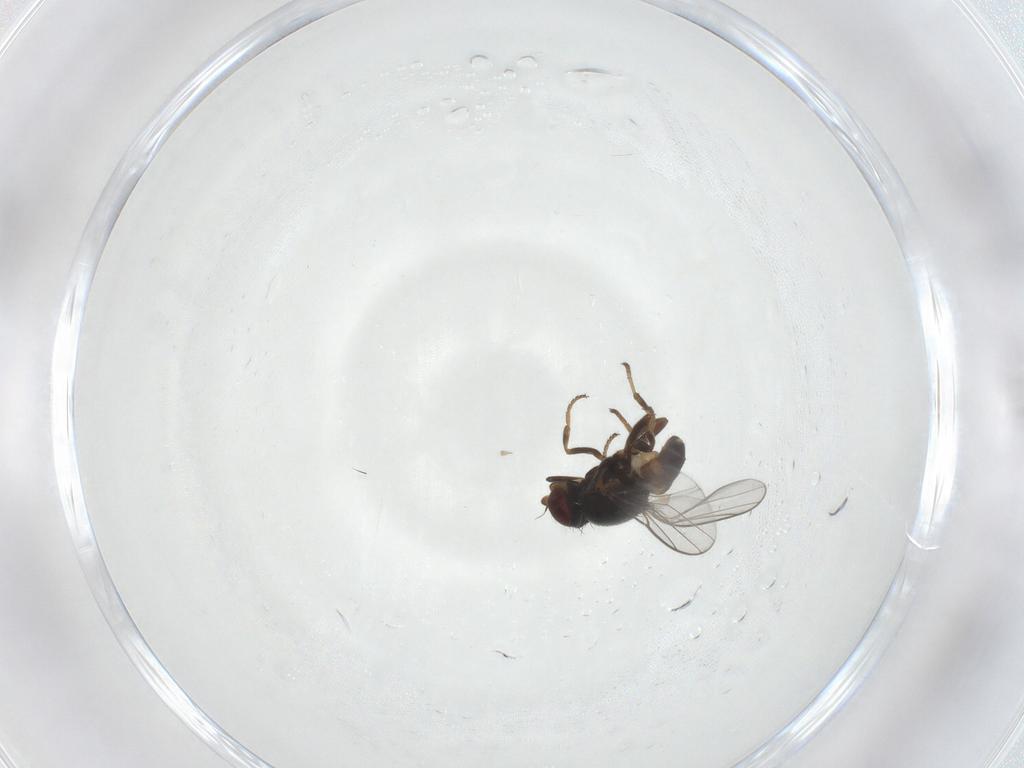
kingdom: Animalia
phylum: Arthropoda
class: Insecta
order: Diptera
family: Chloropidae
